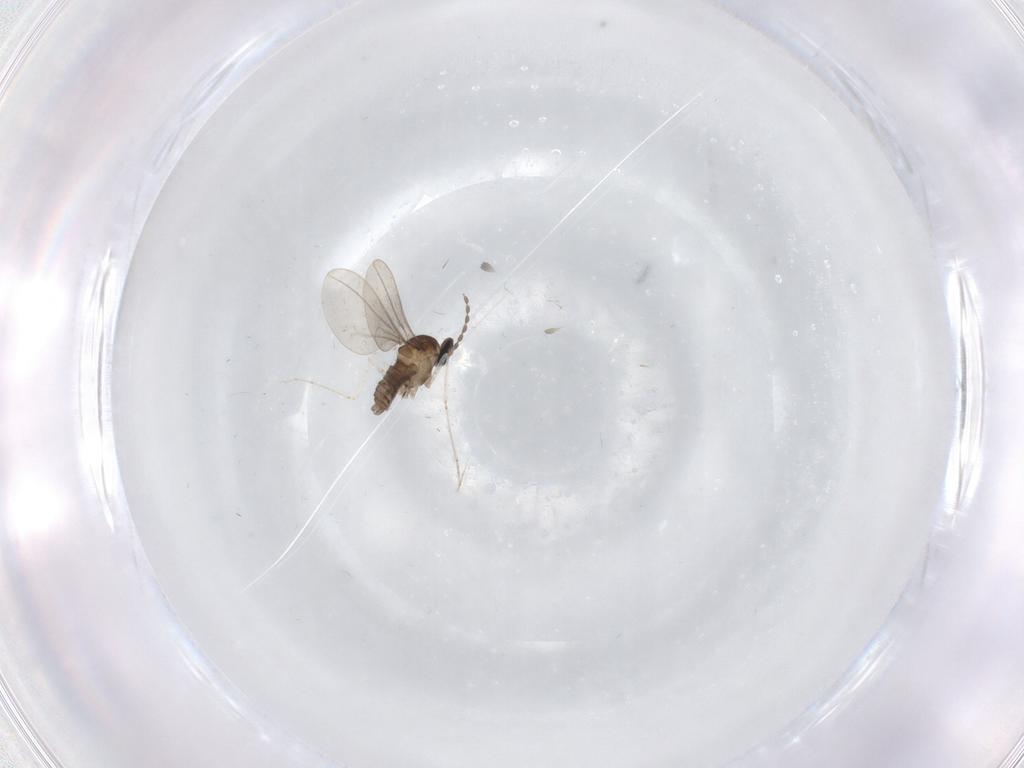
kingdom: Animalia
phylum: Arthropoda
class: Insecta
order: Diptera
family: Cecidomyiidae
